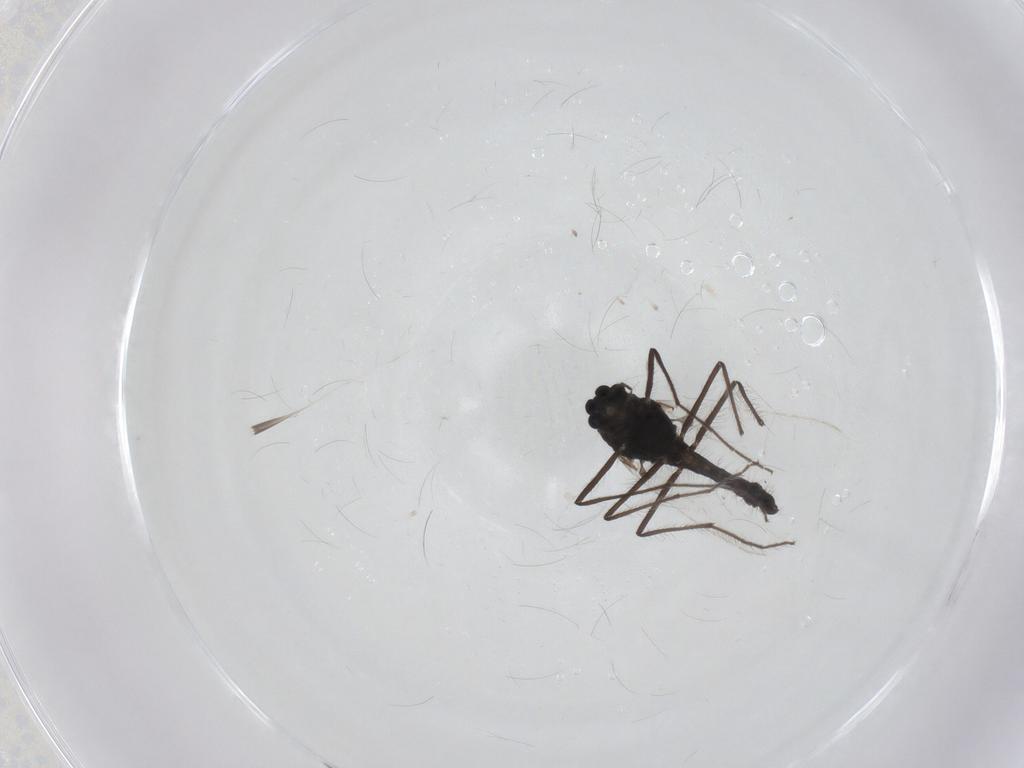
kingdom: Animalia
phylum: Arthropoda
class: Insecta
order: Diptera
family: Chironomidae
